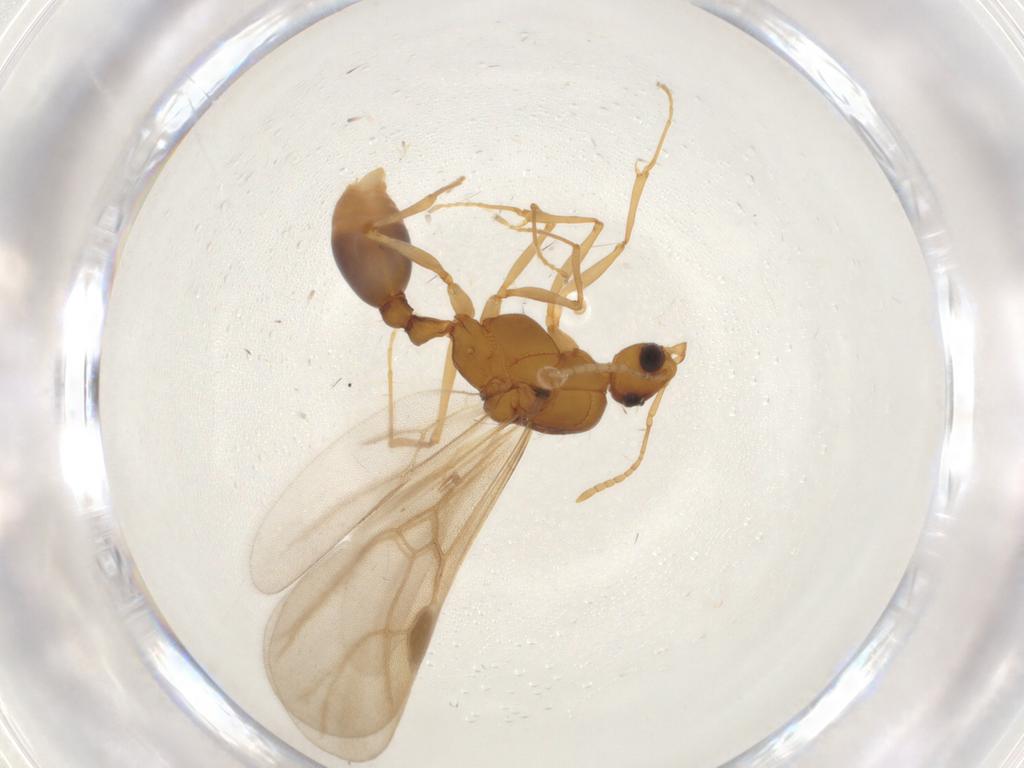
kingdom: Animalia
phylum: Arthropoda
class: Insecta
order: Hymenoptera
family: Formicidae
